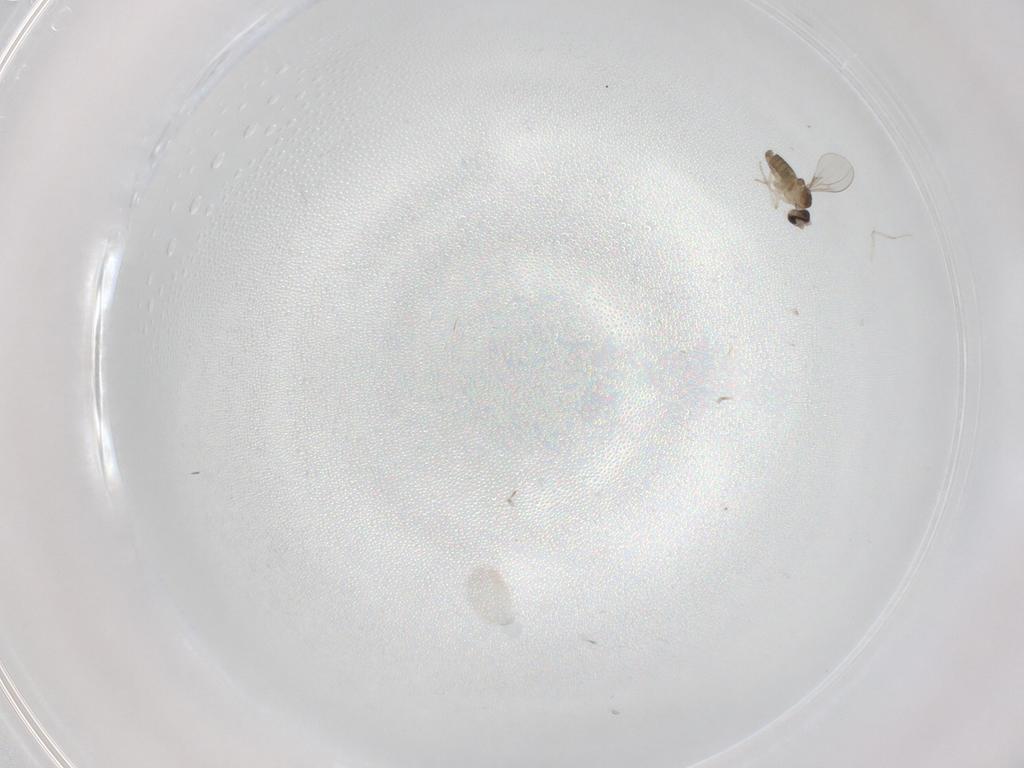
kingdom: Animalia
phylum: Arthropoda
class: Insecta
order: Diptera
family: Cecidomyiidae
